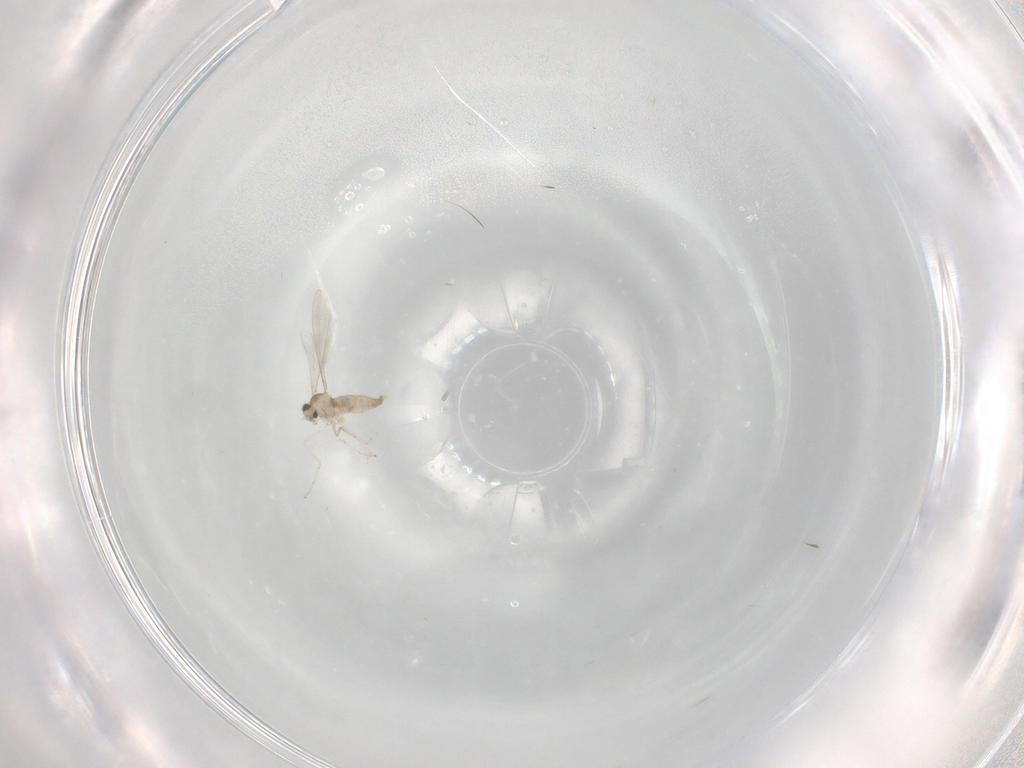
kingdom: Animalia
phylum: Arthropoda
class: Insecta
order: Diptera
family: Cecidomyiidae
